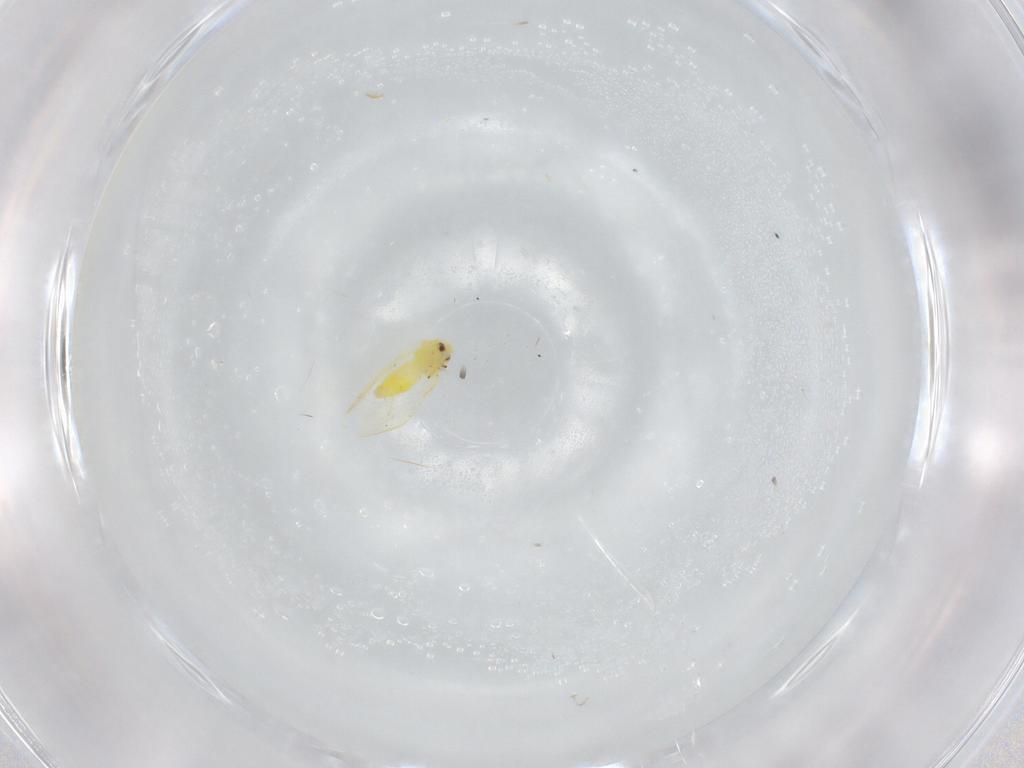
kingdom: Animalia
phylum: Arthropoda
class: Insecta
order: Hemiptera
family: Aleyrodidae
